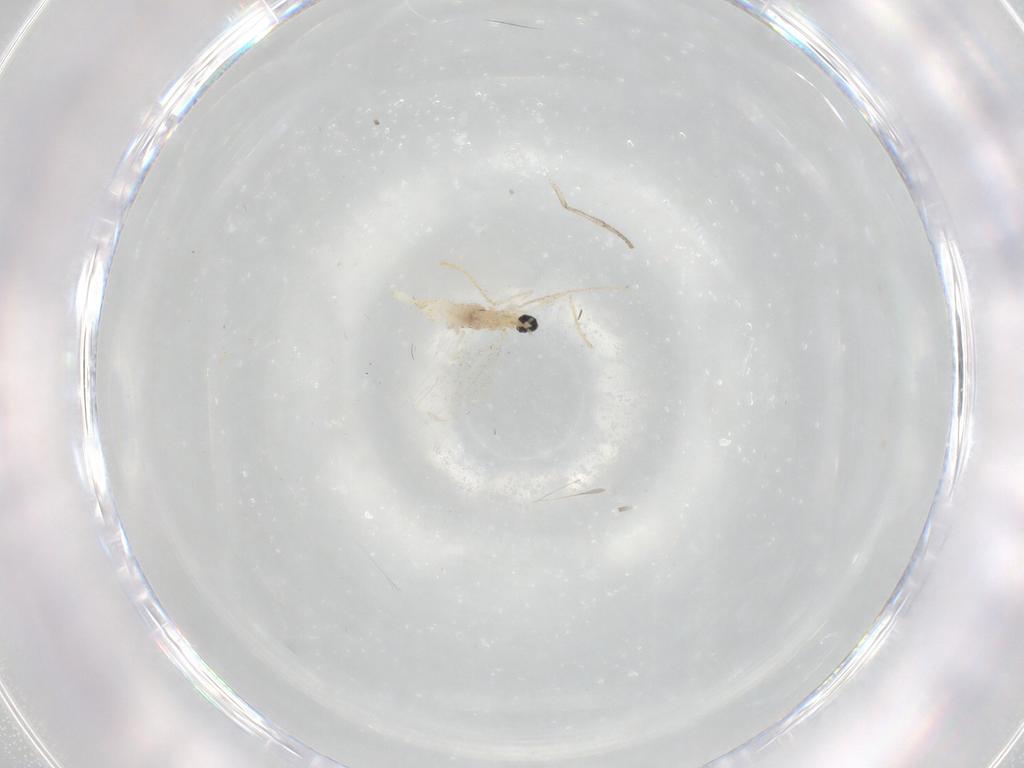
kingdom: Animalia
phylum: Arthropoda
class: Insecta
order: Diptera
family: Cecidomyiidae
